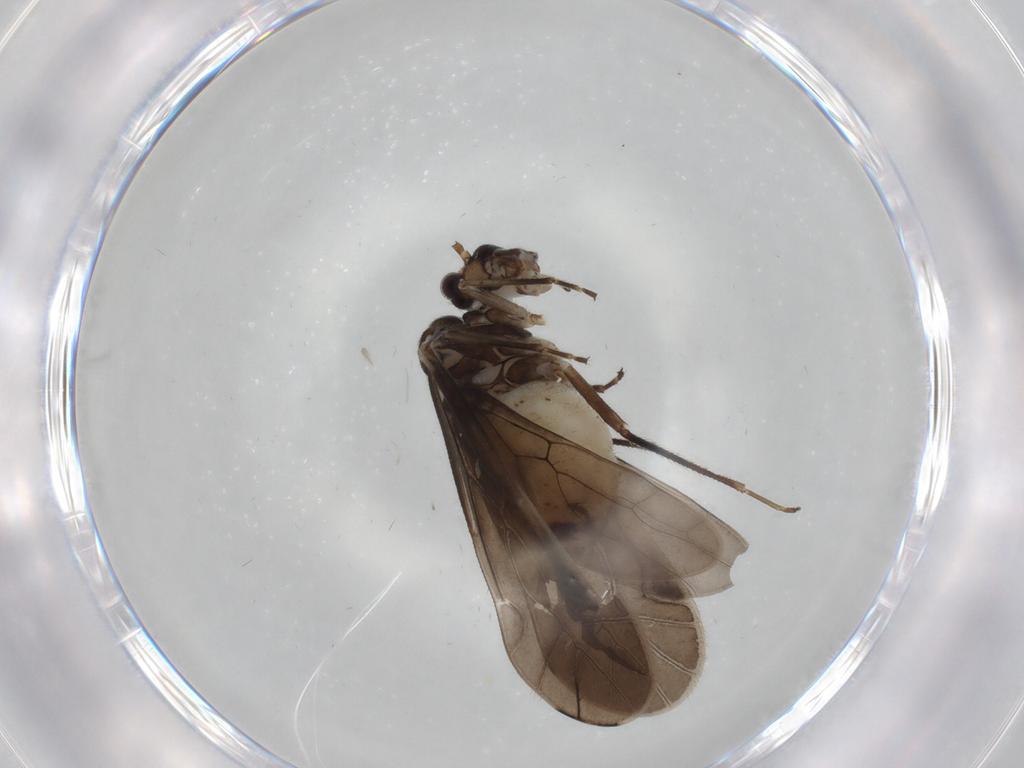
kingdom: Animalia
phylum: Arthropoda
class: Insecta
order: Psocodea
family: Caeciliusidae
